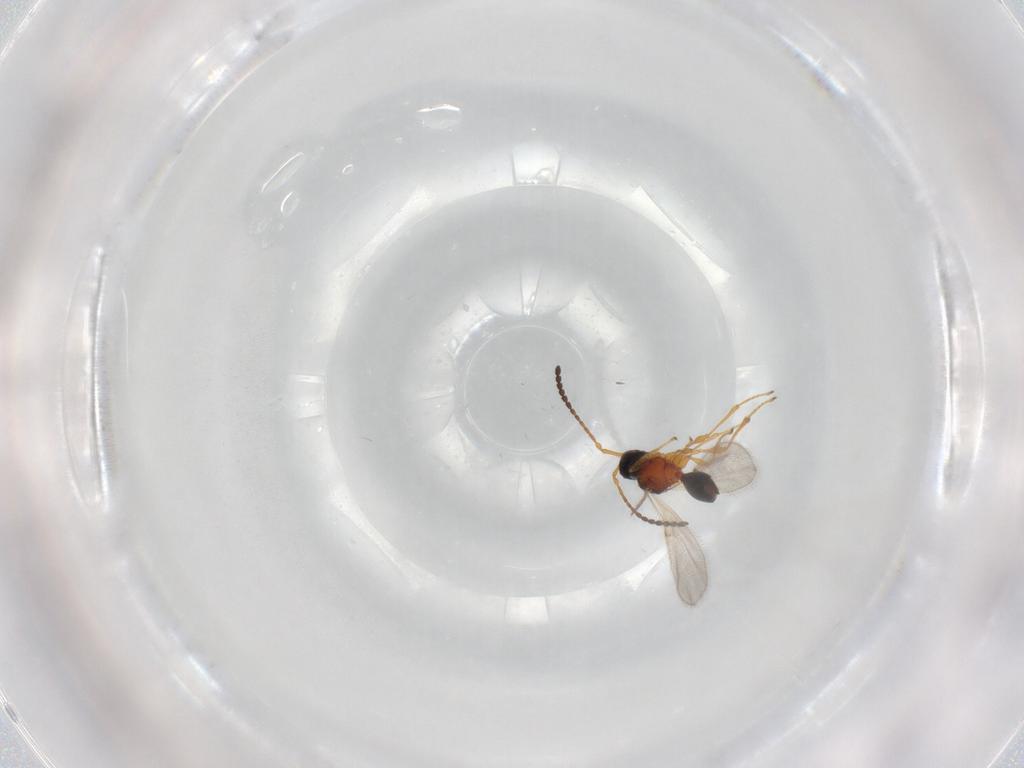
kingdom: Animalia
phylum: Arthropoda
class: Insecta
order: Hymenoptera
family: Diapriidae
